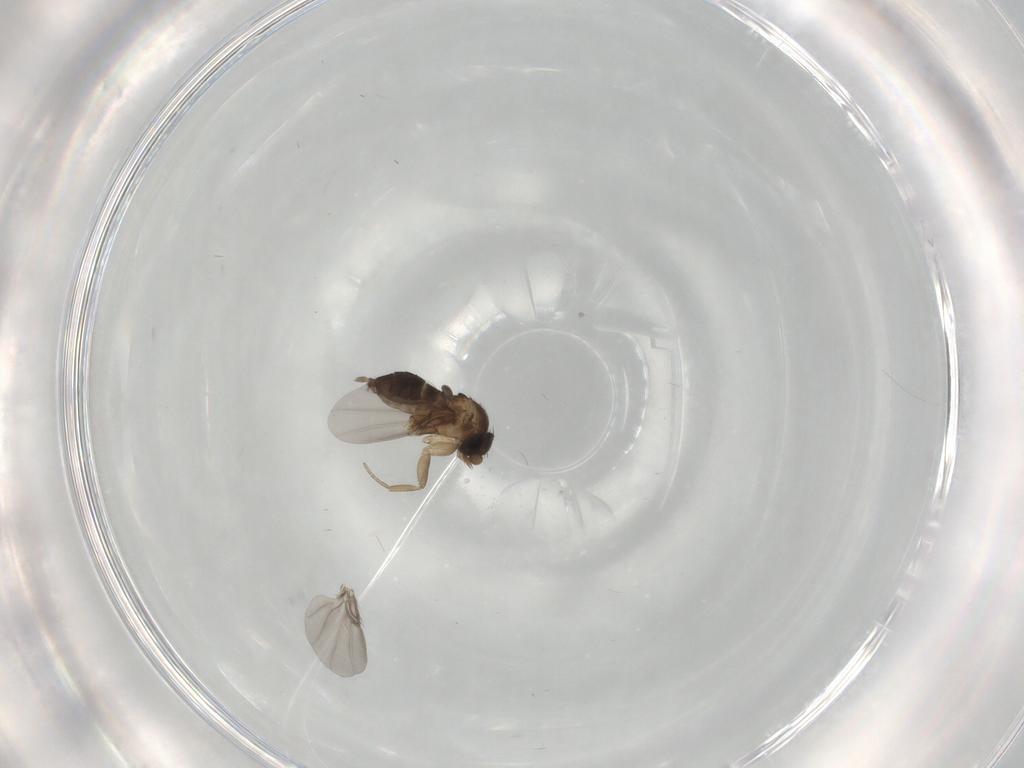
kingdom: Animalia
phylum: Arthropoda
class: Insecta
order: Diptera
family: Phoridae
